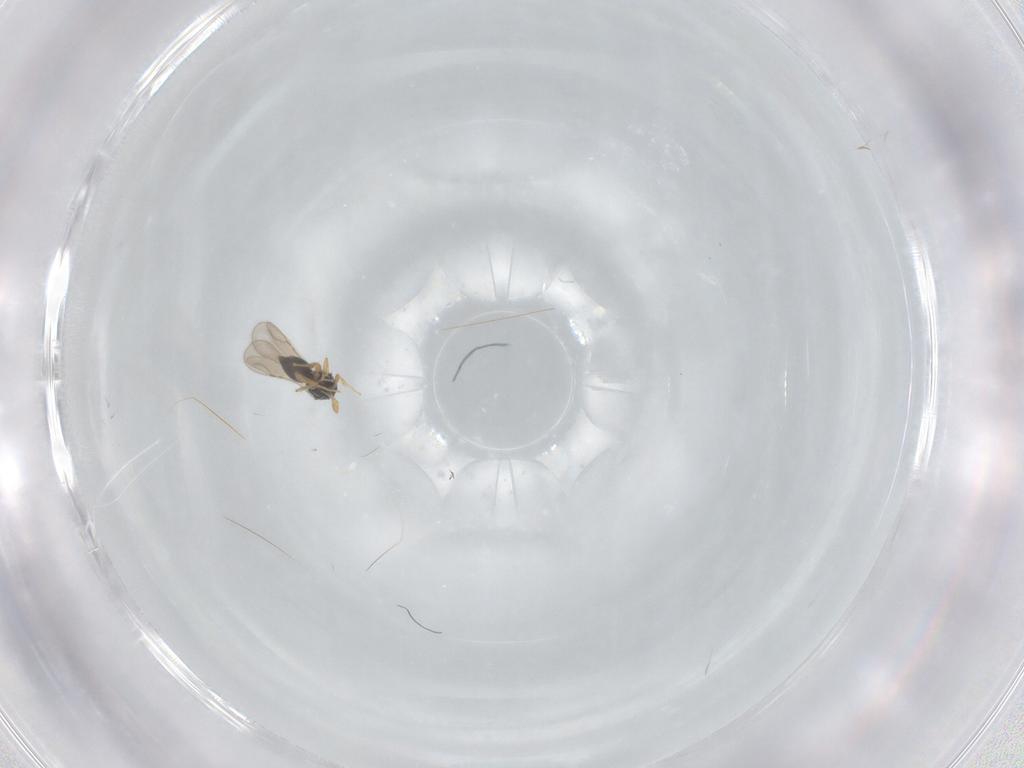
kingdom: Animalia
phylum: Arthropoda
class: Insecta
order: Hymenoptera
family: Ceraphronidae
